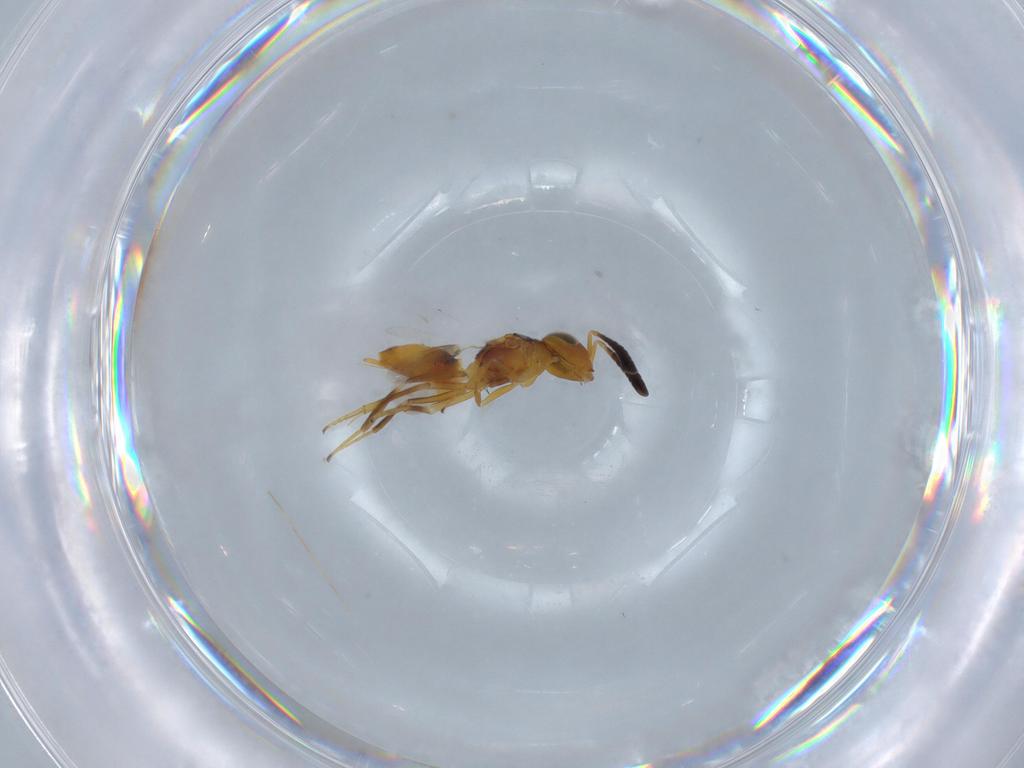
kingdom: Animalia
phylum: Arthropoda
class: Insecta
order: Hymenoptera
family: Encyrtidae
